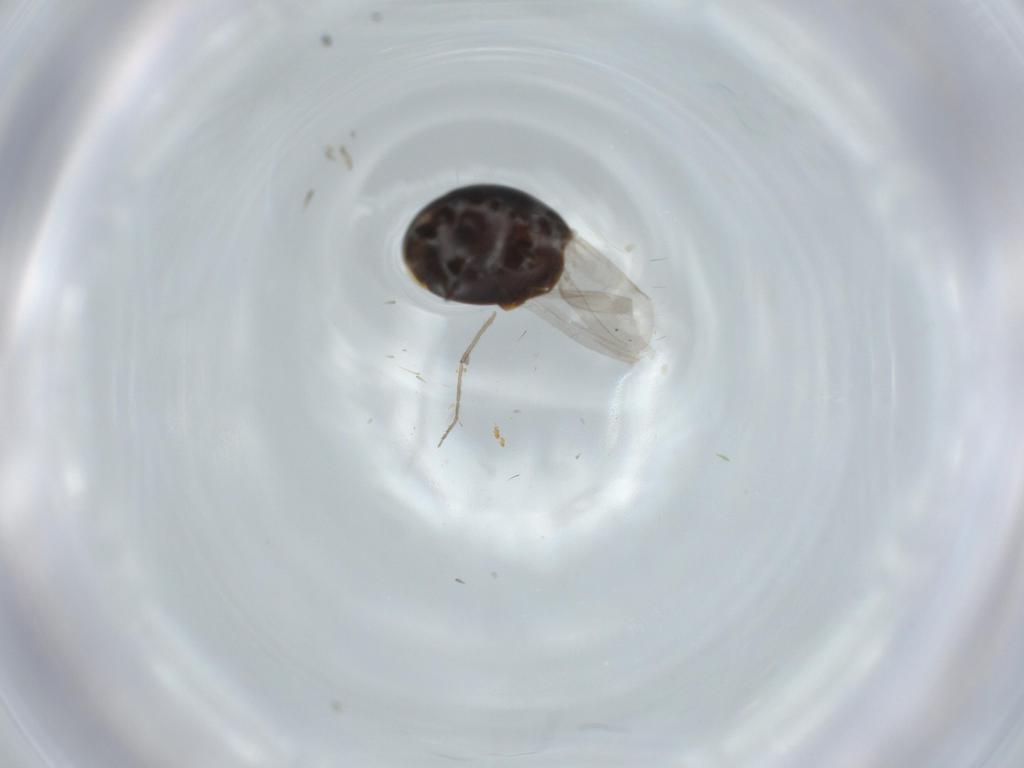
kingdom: Animalia
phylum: Arthropoda
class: Insecta
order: Coleoptera
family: Corylophidae
